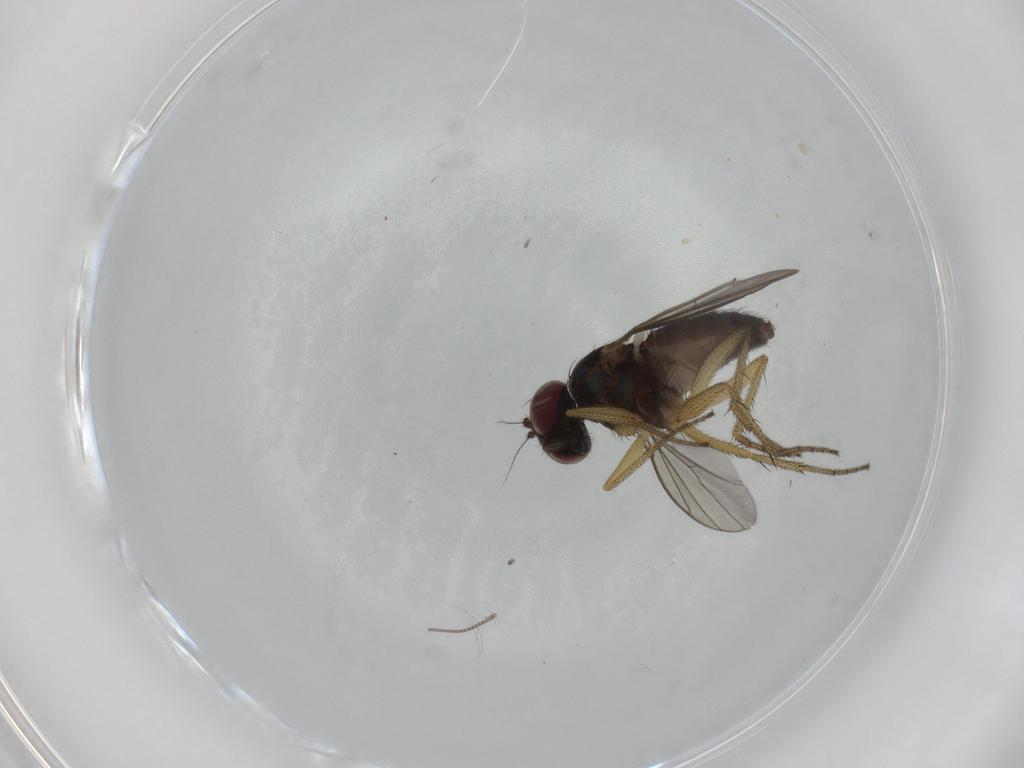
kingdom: Animalia
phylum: Arthropoda
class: Insecta
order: Diptera
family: Dolichopodidae
